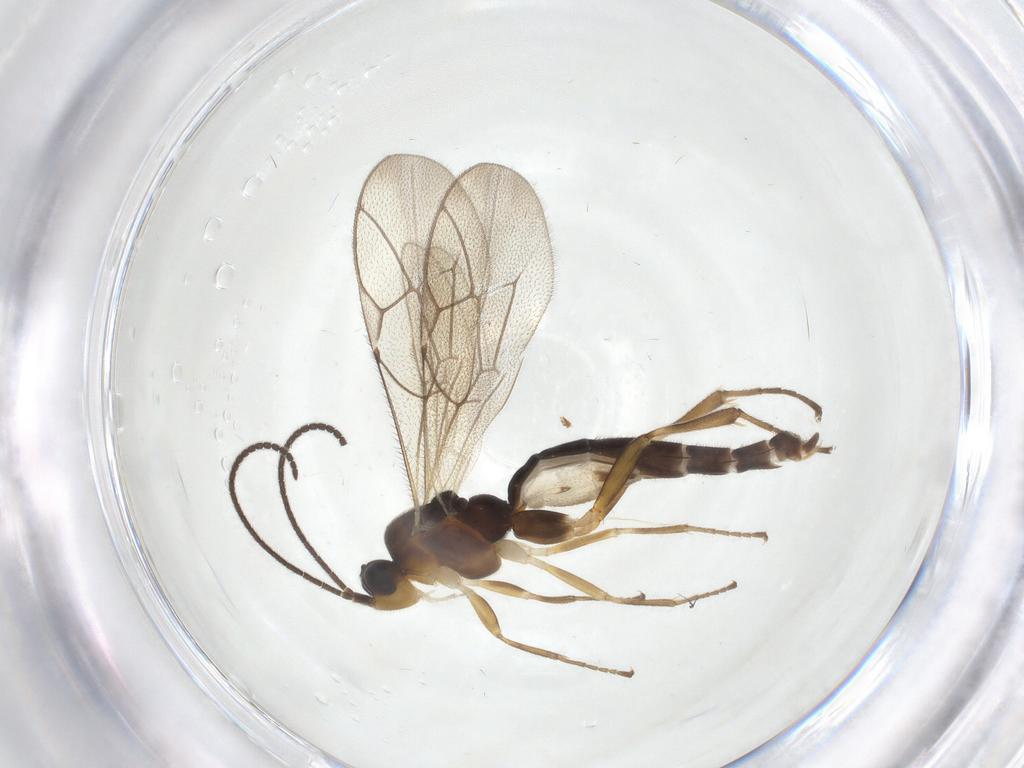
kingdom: Animalia
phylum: Arthropoda
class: Insecta
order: Hymenoptera
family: Ichneumonidae
